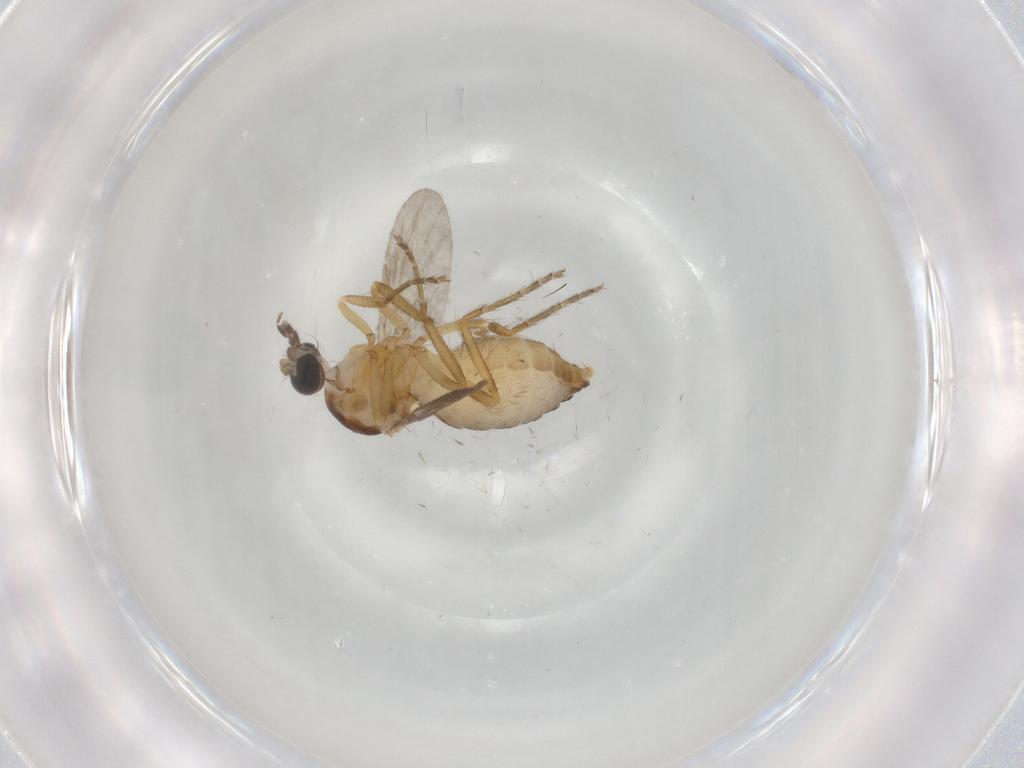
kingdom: Animalia
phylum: Arthropoda
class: Insecta
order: Diptera
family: Ceratopogonidae
